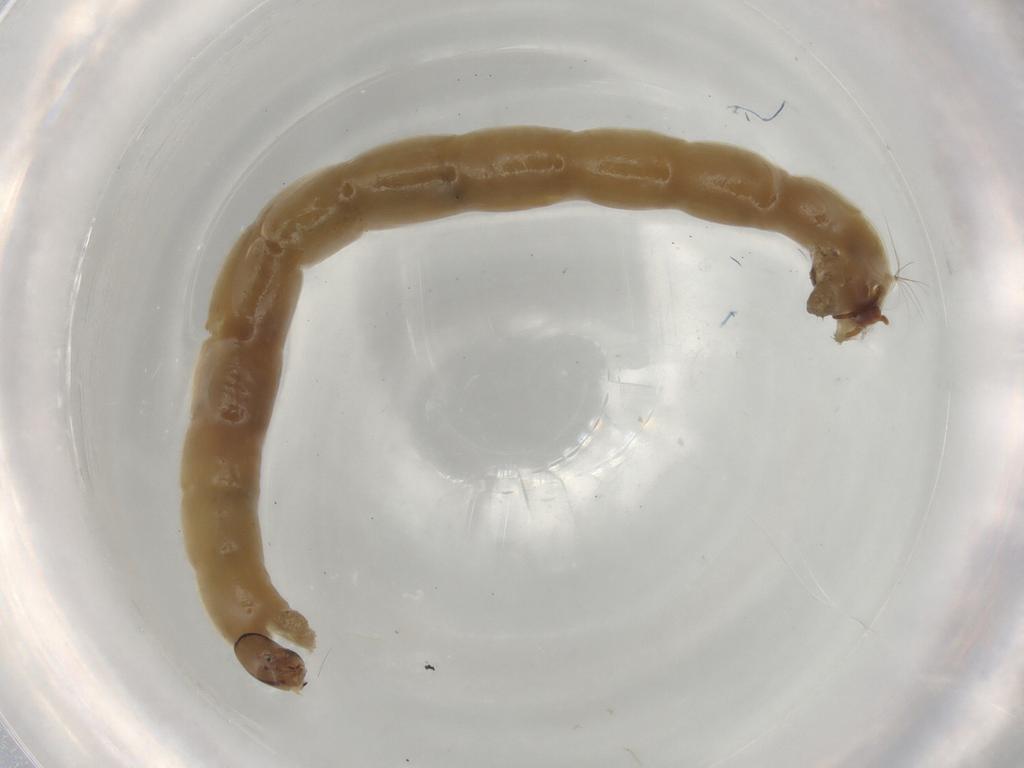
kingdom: Animalia
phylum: Arthropoda
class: Insecta
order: Diptera
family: Chironomidae
